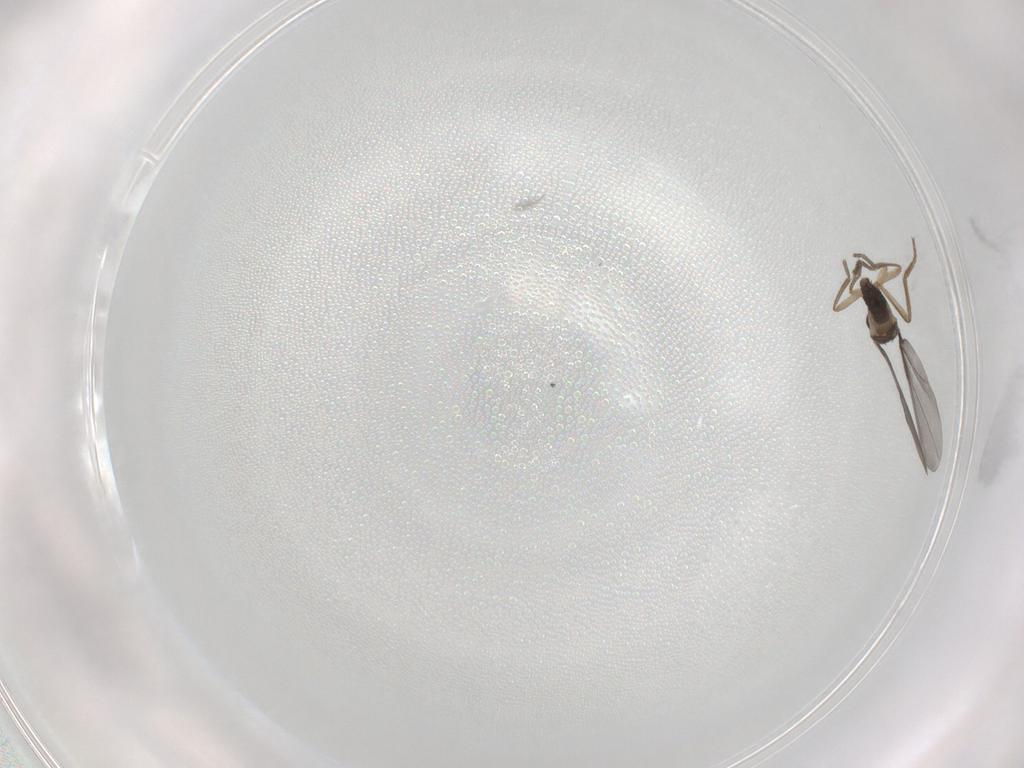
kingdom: Animalia
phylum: Arthropoda
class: Insecta
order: Diptera
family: Phoridae
